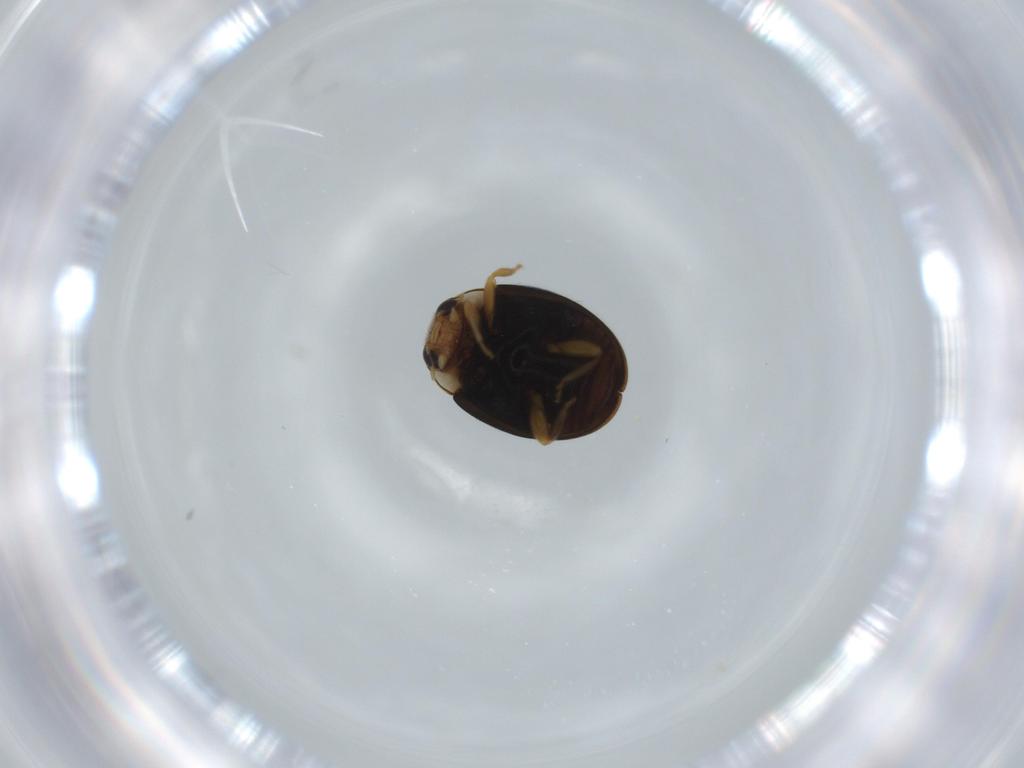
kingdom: Animalia
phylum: Arthropoda
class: Insecta
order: Coleoptera
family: Coccinellidae
